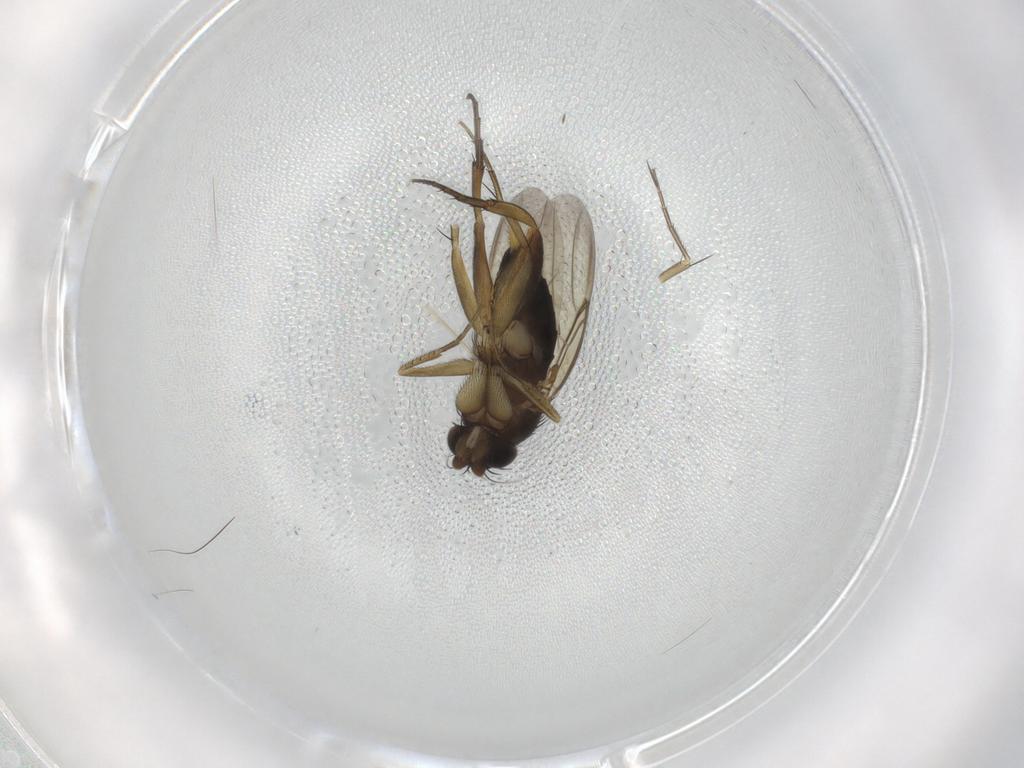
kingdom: Animalia
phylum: Arthropoda
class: Insecta
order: Diptera
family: Phoridae
